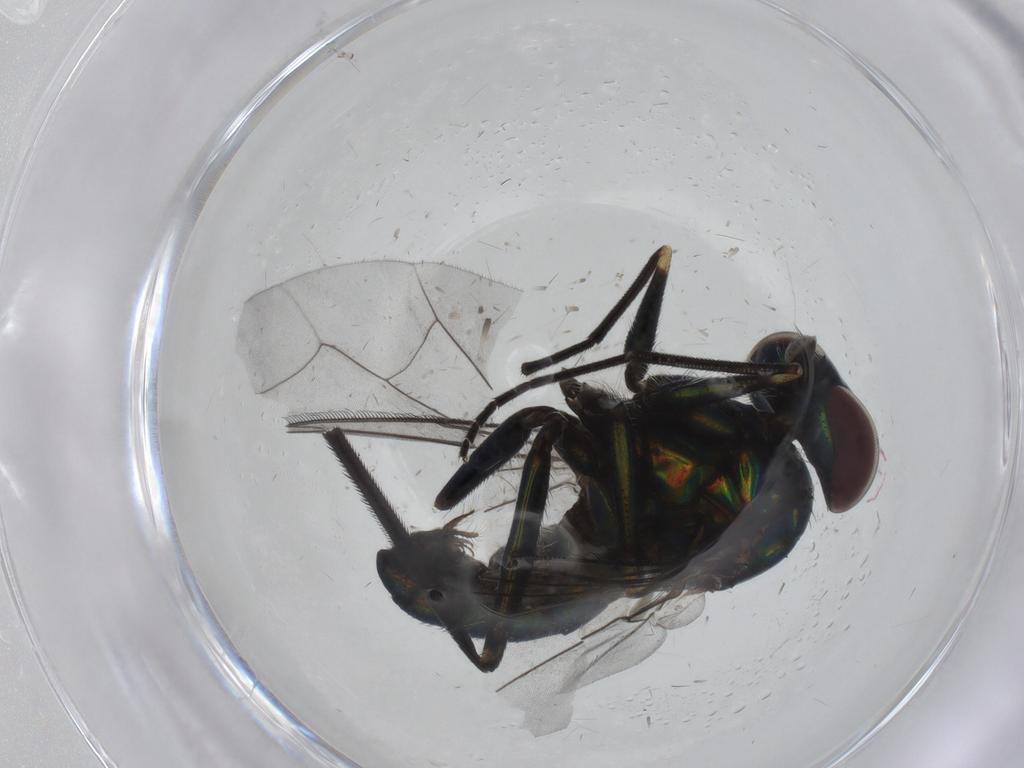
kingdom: Animalia
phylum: Arthropoda
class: Insecta
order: Diptera
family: Dolichopodidae
